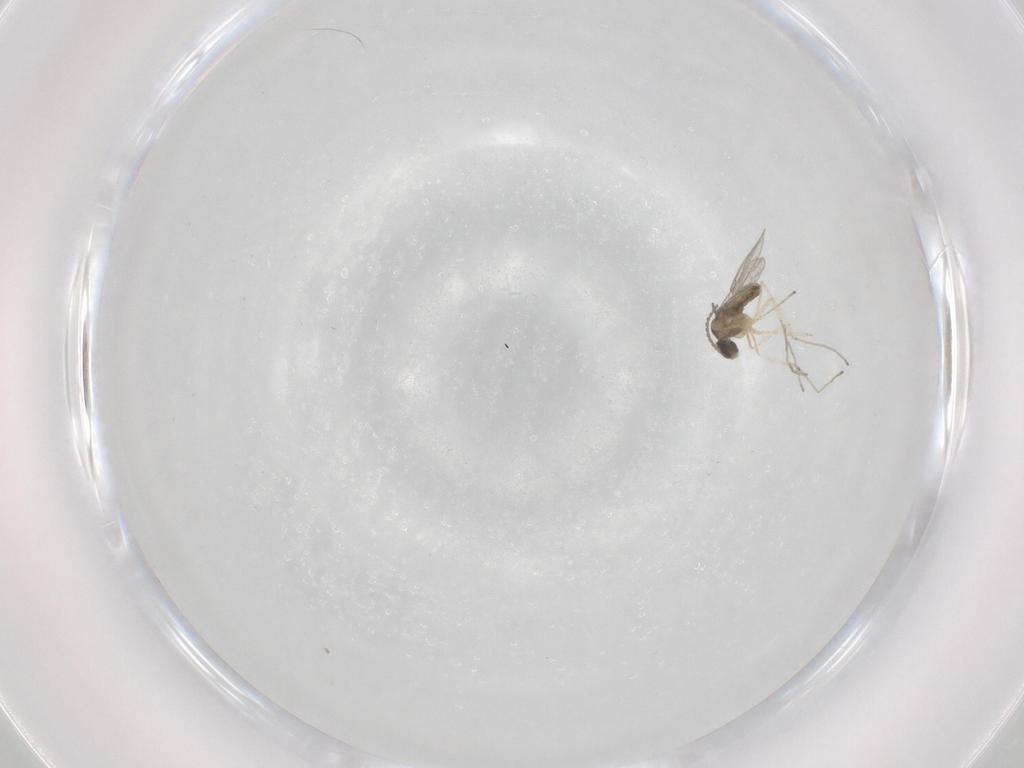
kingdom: Animalia
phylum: Arthropoda
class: Insecta
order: Diptera
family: Cecidomyiidae
